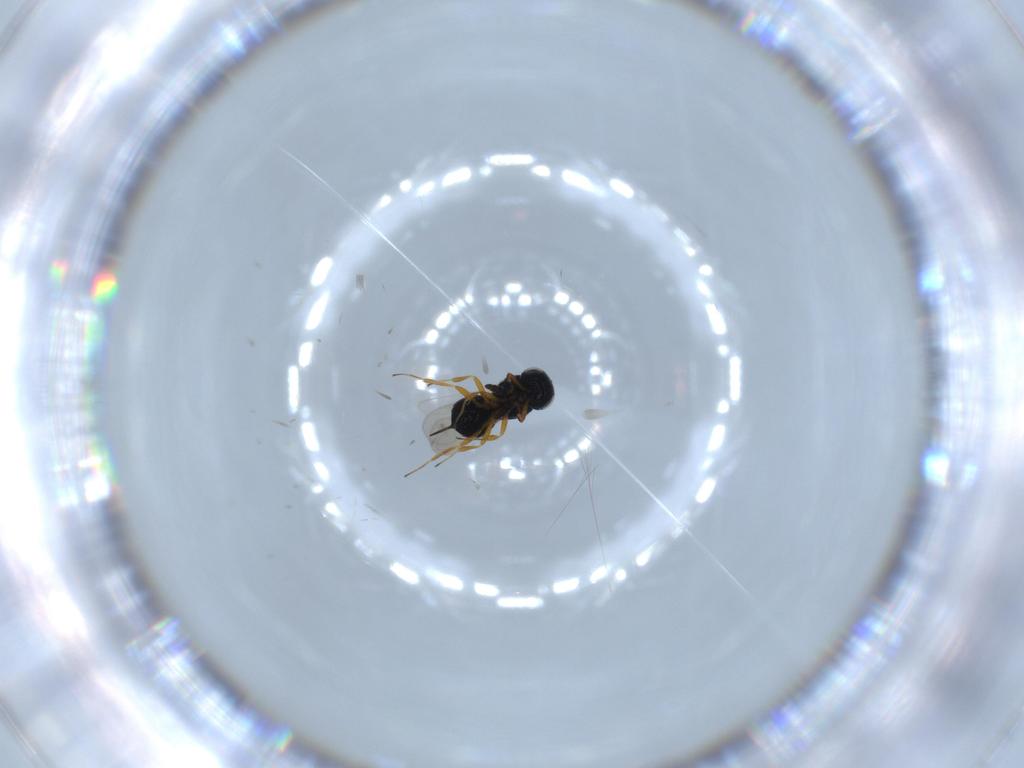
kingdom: Animalia
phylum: Arthropoda
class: Insecta
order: Hymenoptera
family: Scelionidae
